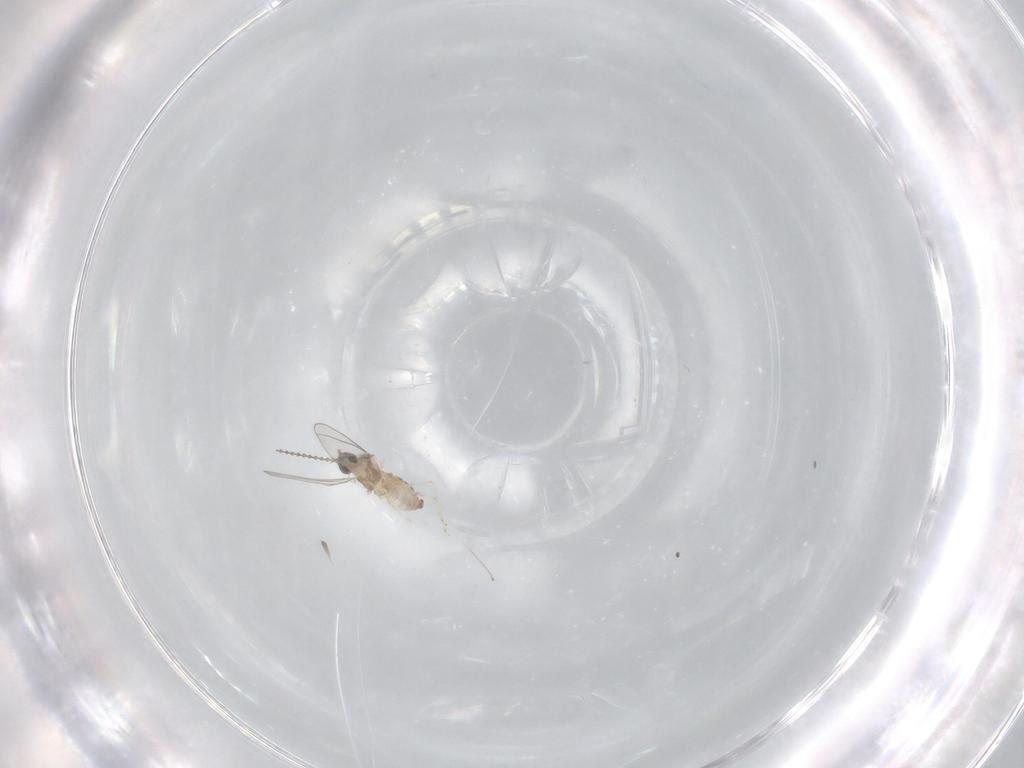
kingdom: Animalia
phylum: Arthropoda
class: Insecta
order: Diptera
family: Cecidomyiidae
